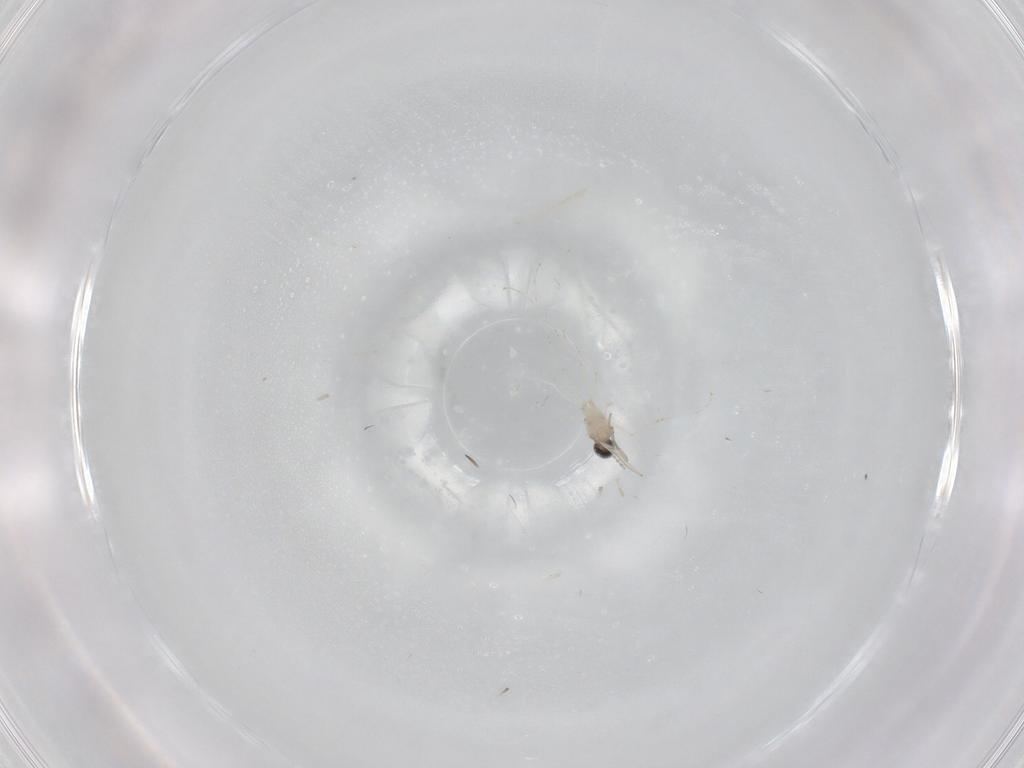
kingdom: Animalia
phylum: Arthropoda
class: Insecta
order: Diptera
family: Cecidomyiidae
